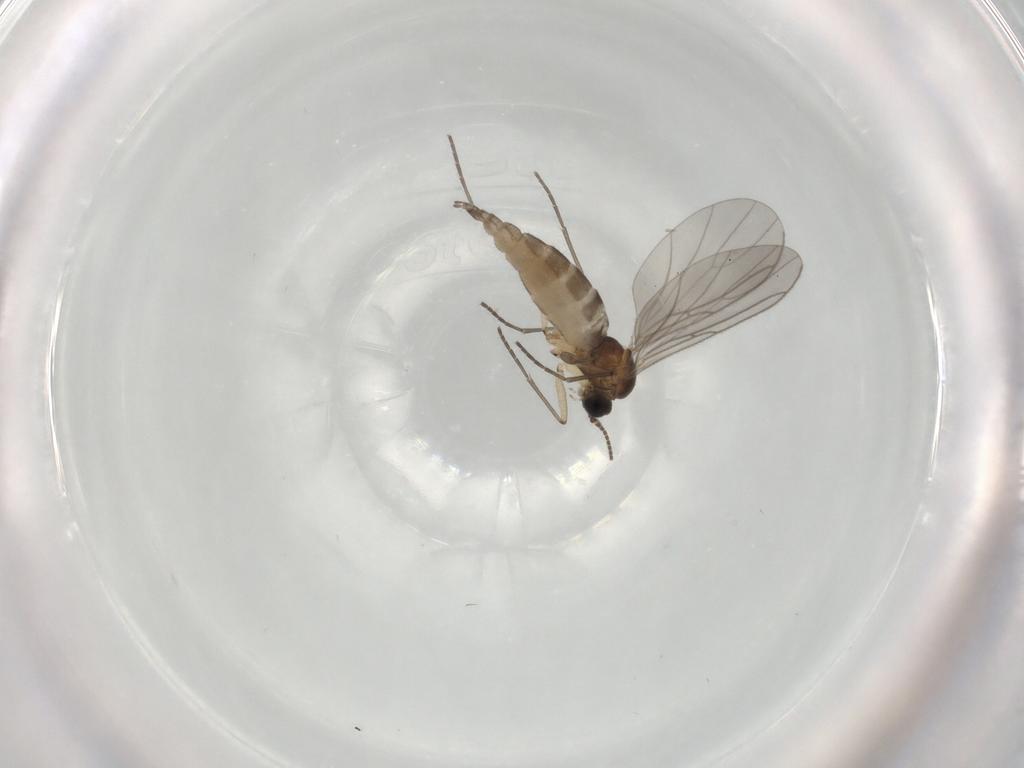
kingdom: Animalia
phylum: Arthropoda
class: Insecta
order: Diptera
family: Sciaridae
